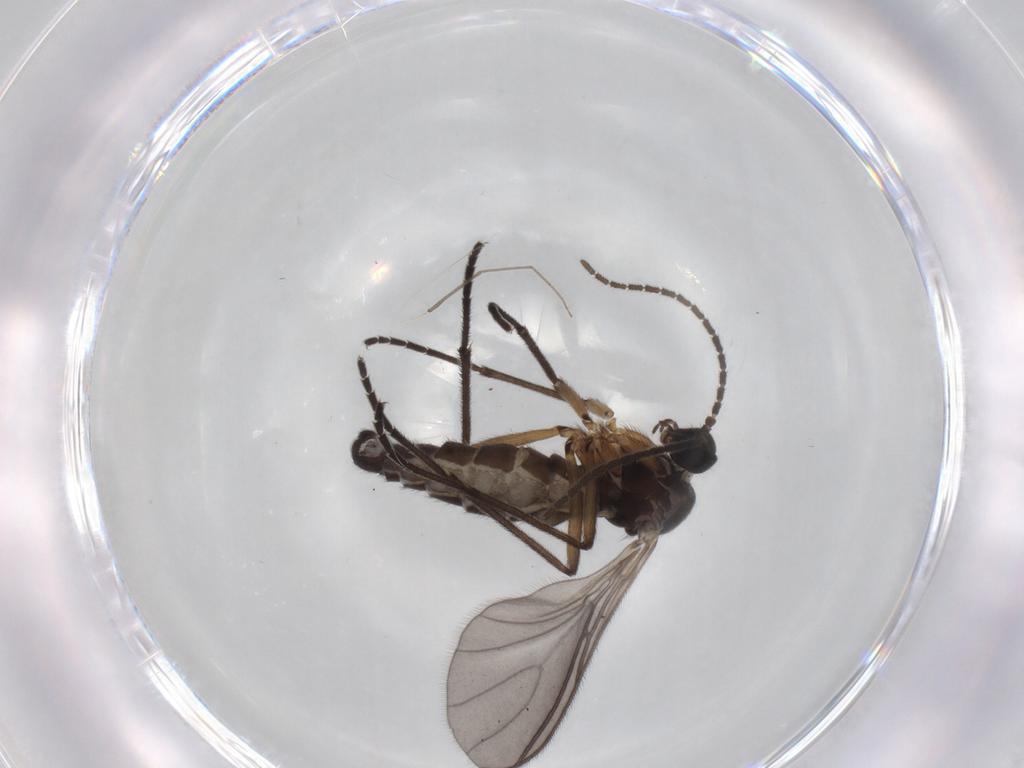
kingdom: Animalia
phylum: Arthropoda
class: Insecta
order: Diptera
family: Sciaridae
